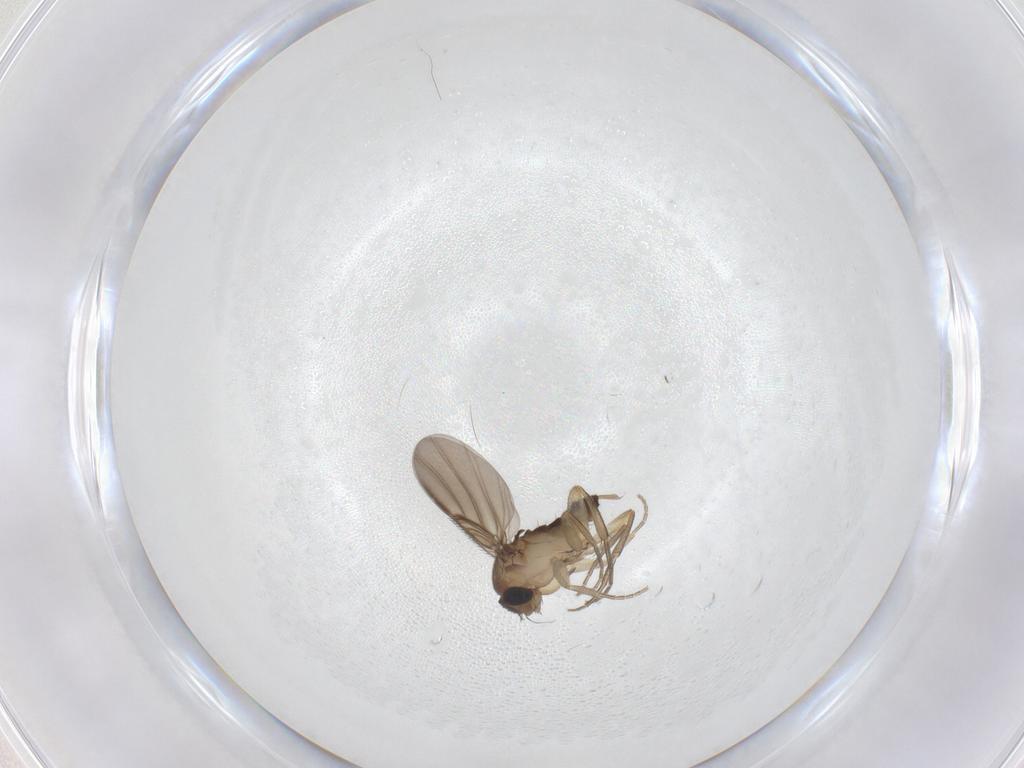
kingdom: Animalia
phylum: Arthropoda
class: Insecta
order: Diptera
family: Phoridae
